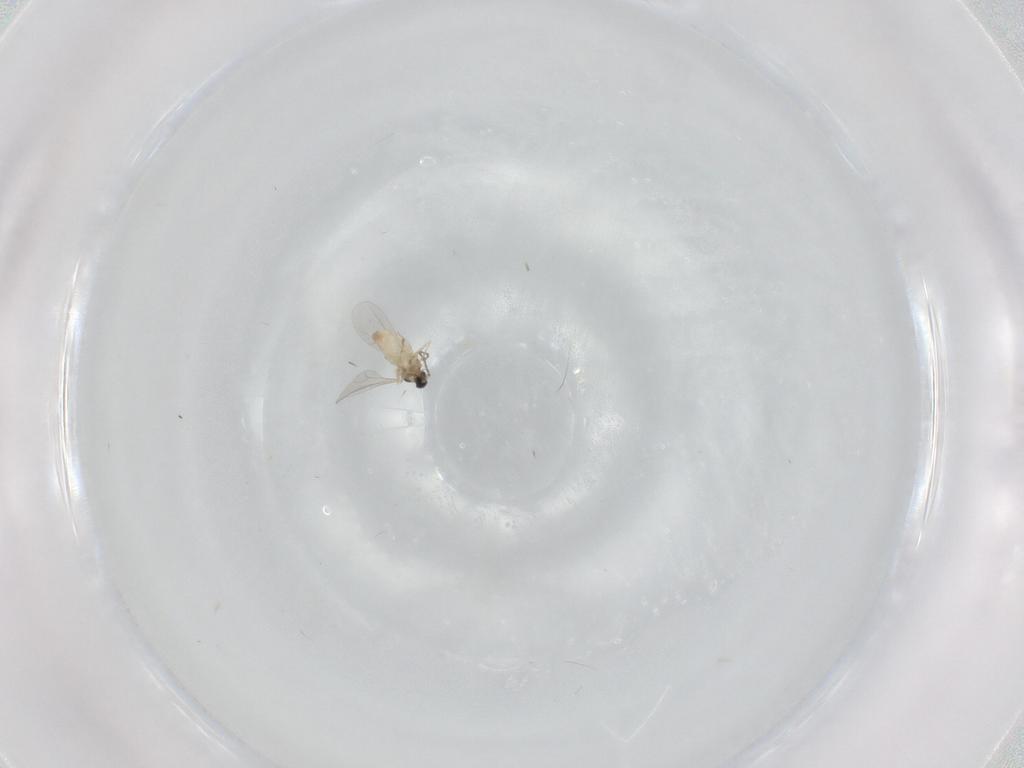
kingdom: Animalia
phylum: Arthropoda
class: Insecta
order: Diptera
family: Cecidomyiidae
